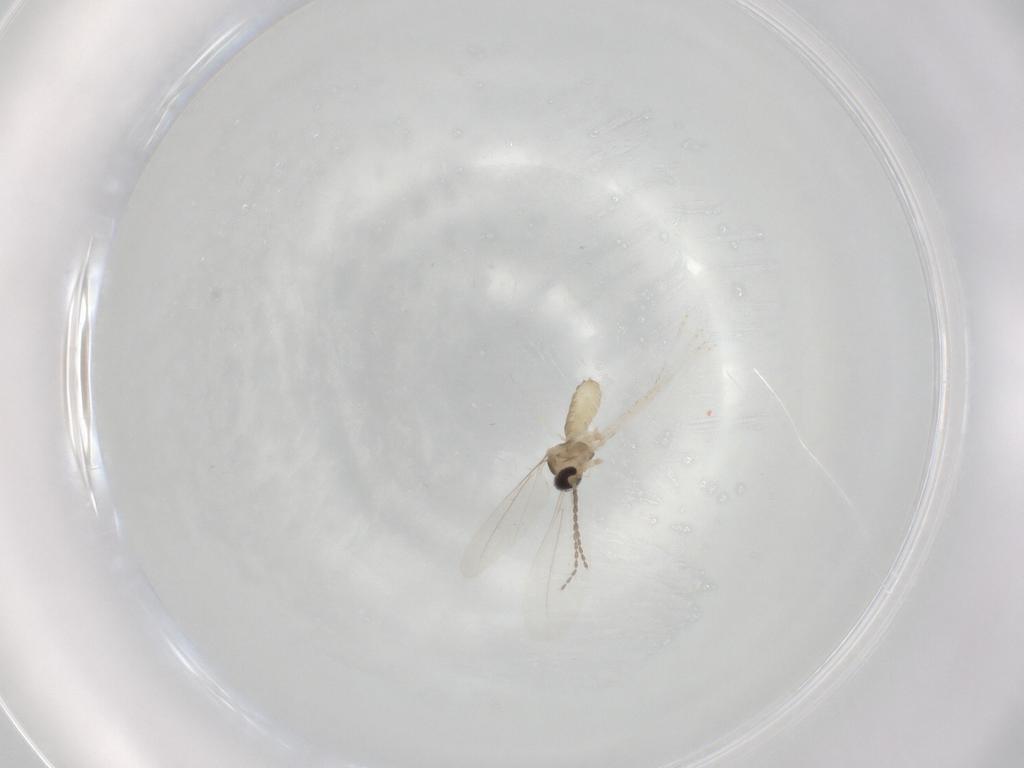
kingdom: Animalia
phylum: Arthropoda
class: Insecta
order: Diptera
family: Cecidomyiidae
